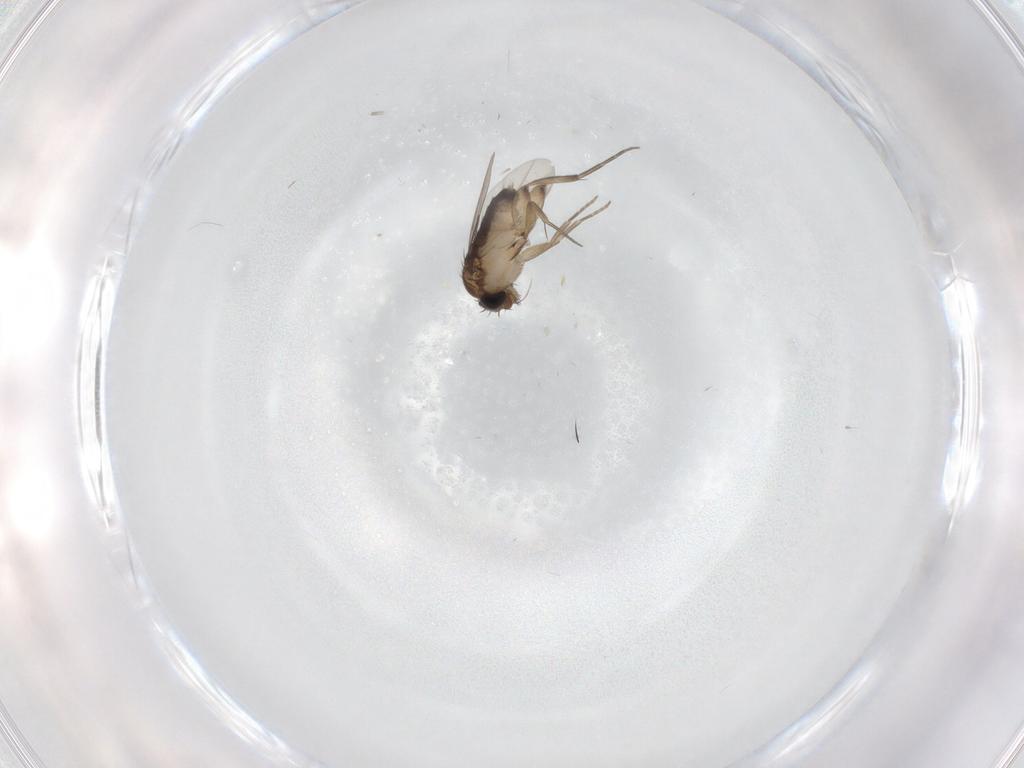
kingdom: Animalia
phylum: Arthropoda
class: Insecta
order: Diptera
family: Phoridae
